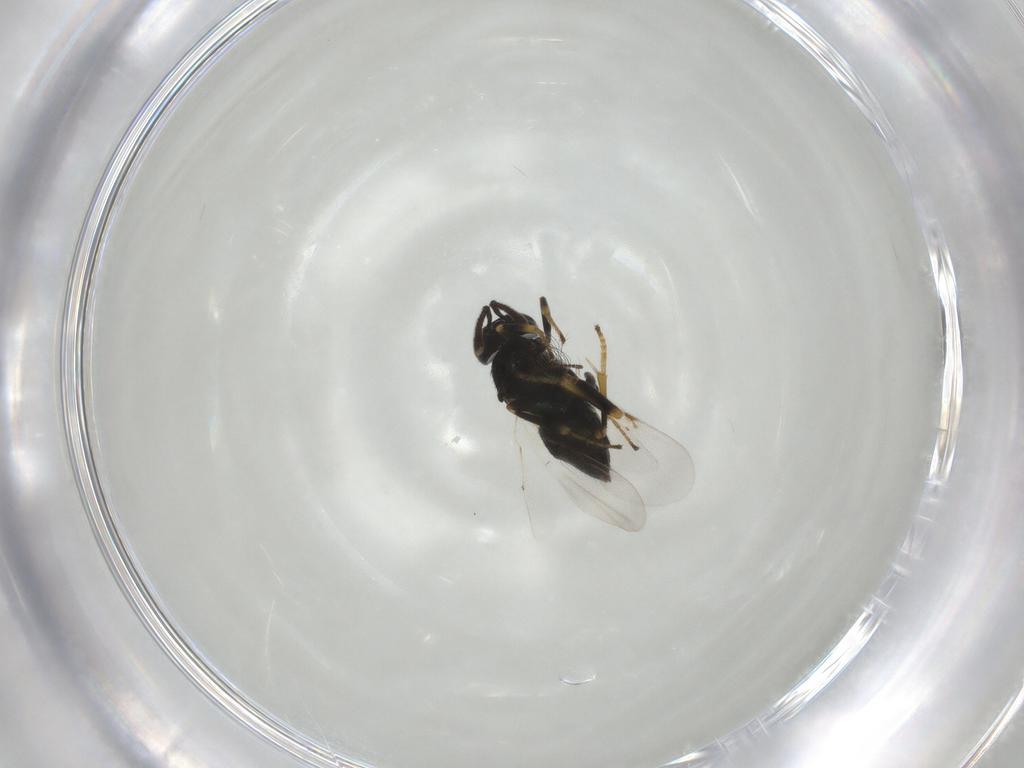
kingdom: Animalia
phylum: Arthropoda
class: Insecta
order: Hymenoptera
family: Encyrtidae
